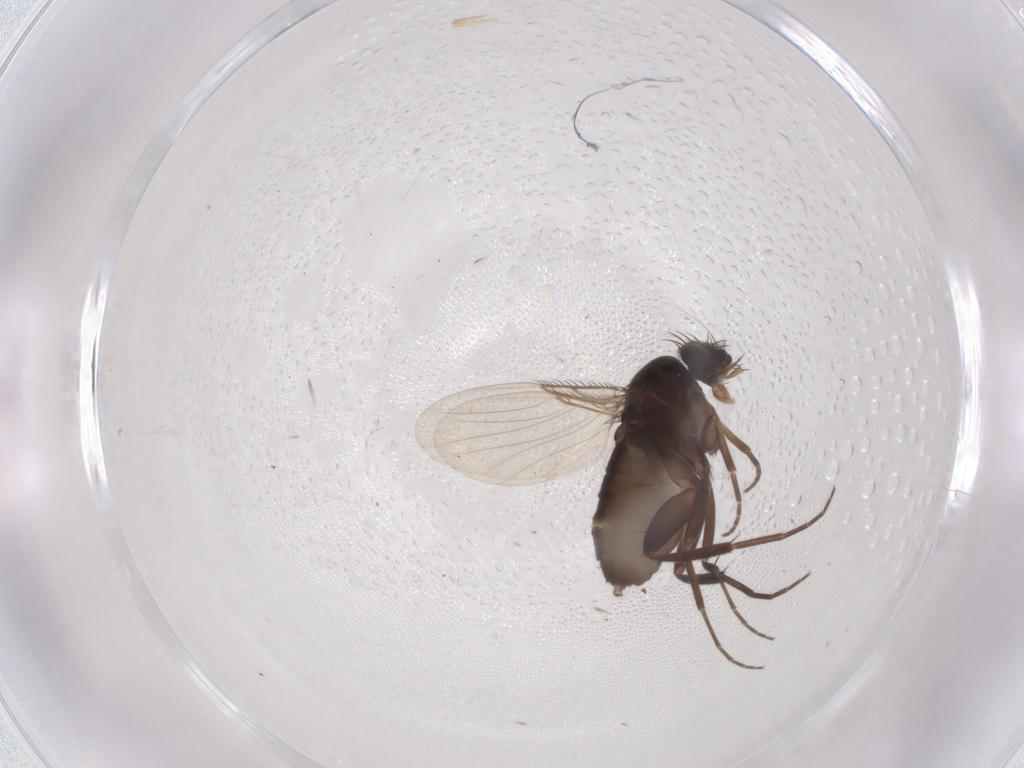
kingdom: Animalia
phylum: Arthropoda
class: Insecta
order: Diptera
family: Phoridae
